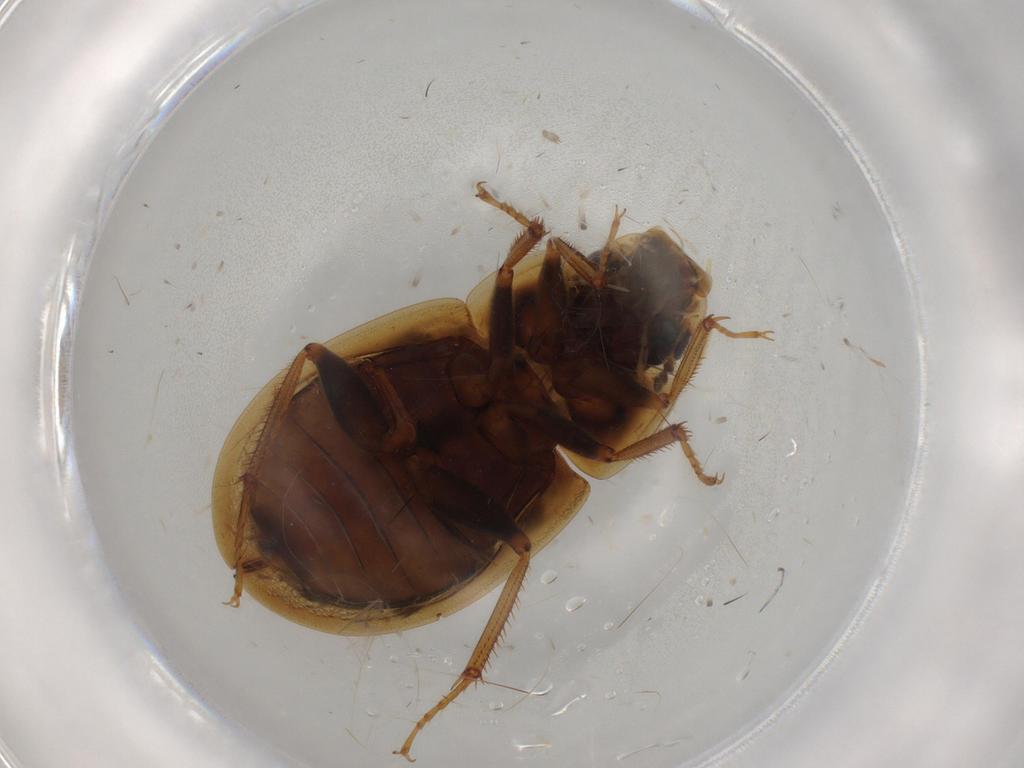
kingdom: Animalia
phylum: Arthropoda
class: Insecta
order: Coleoptera
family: Hydrophilidae
